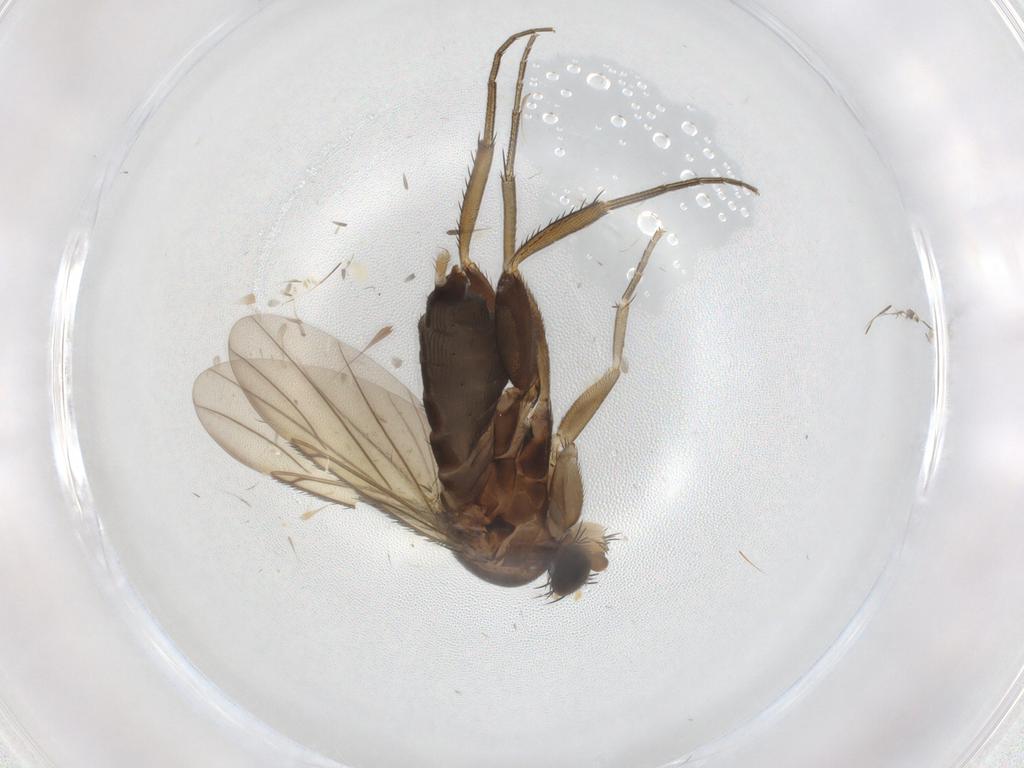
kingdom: Animalia
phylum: Arthropoda
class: Insecta
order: Diptera
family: Phoridae
